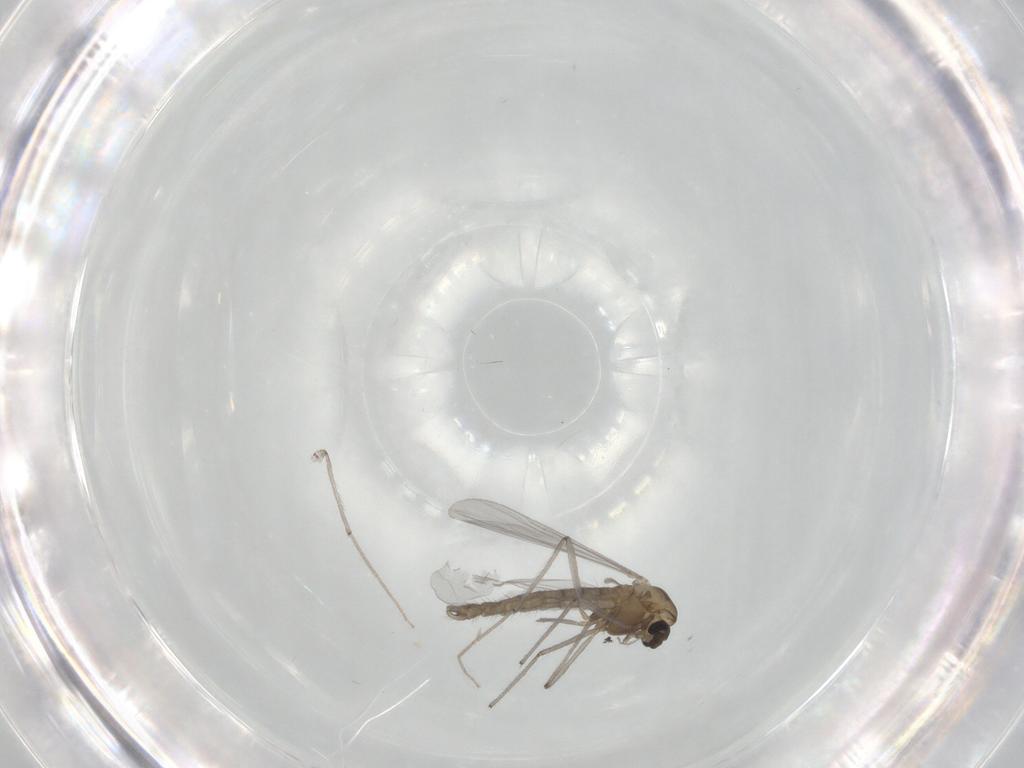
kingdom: Animalia
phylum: Arthropoda
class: Insecta
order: Diptera
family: Chironomidae
